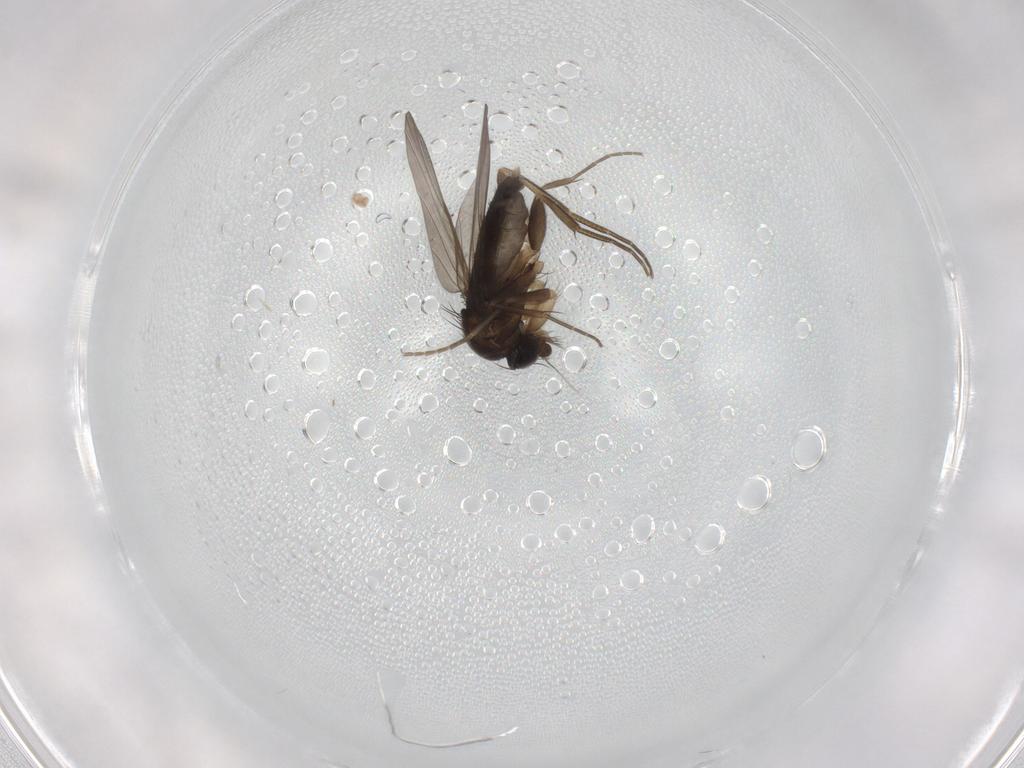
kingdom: Animalia
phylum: Arthropoda
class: Insecta
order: Diptera
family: Phoridae
